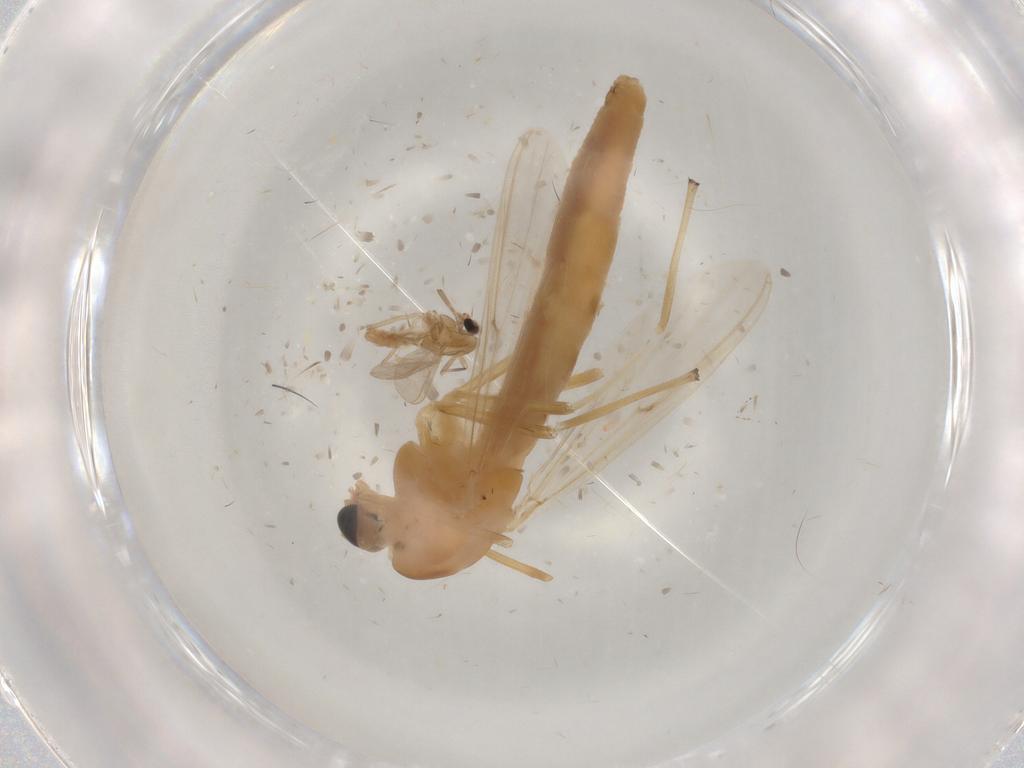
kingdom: Animalia
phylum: Arthropoda
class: Insecta
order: Diptera
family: Chironomidae
